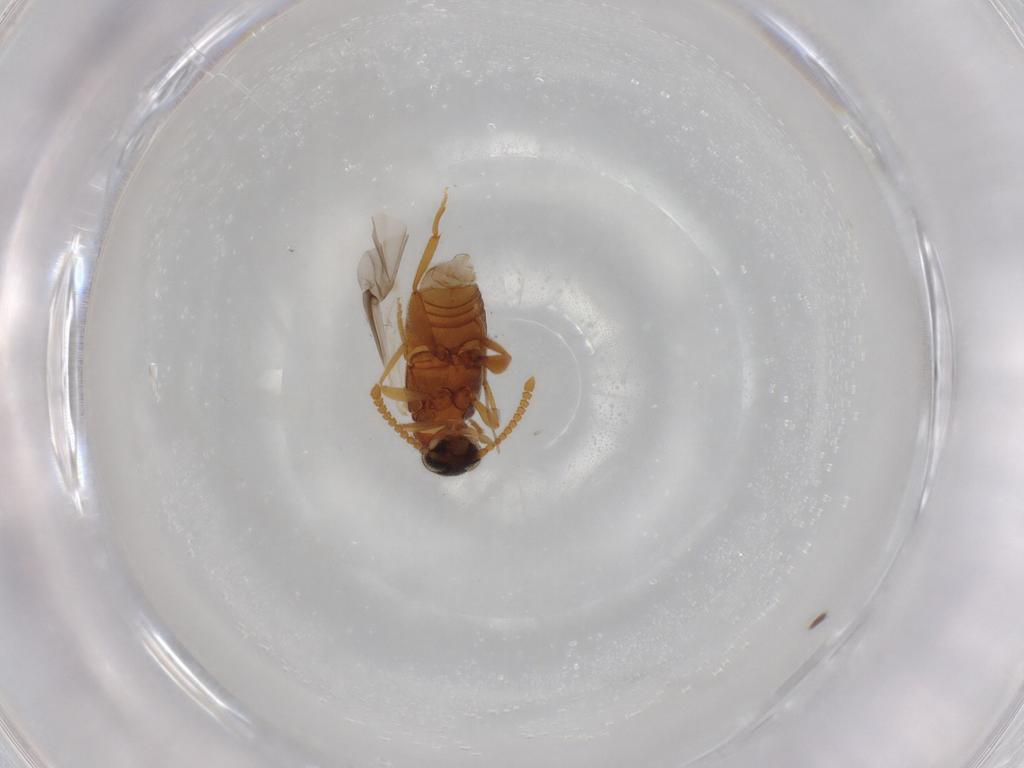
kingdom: Animalia
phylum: Arthropoda
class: Insecta
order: Coleoptera
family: Aderidae
